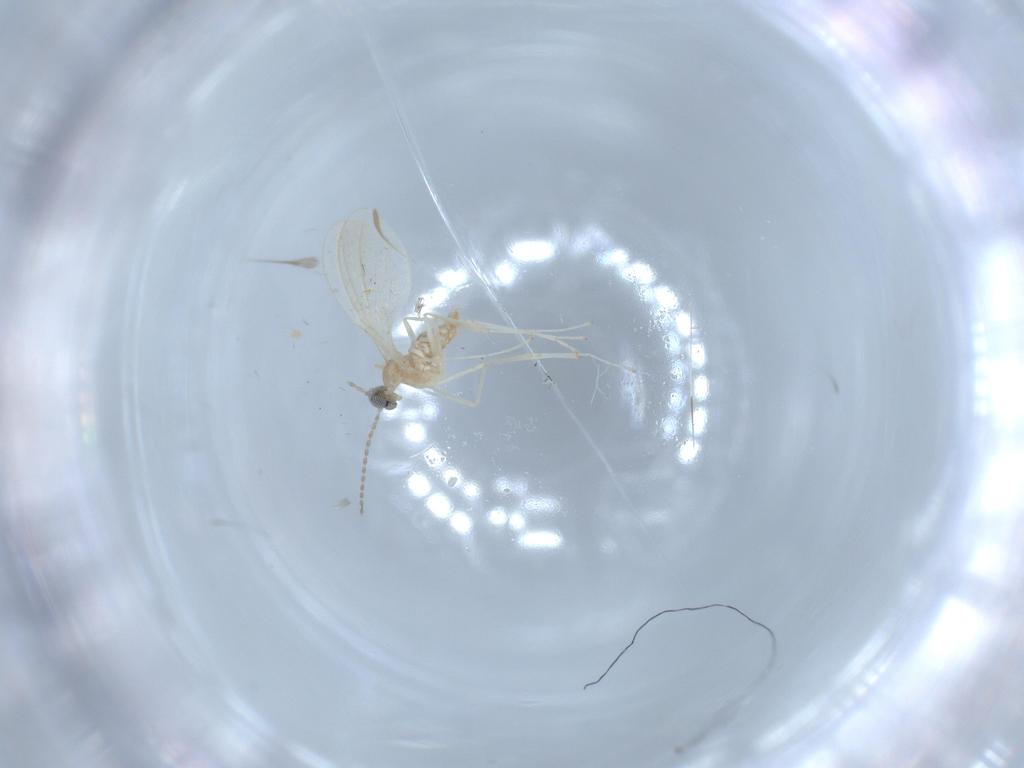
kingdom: Animalia
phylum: Arthropoda
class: Insecta
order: Diptera
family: Cecidomyiidae
